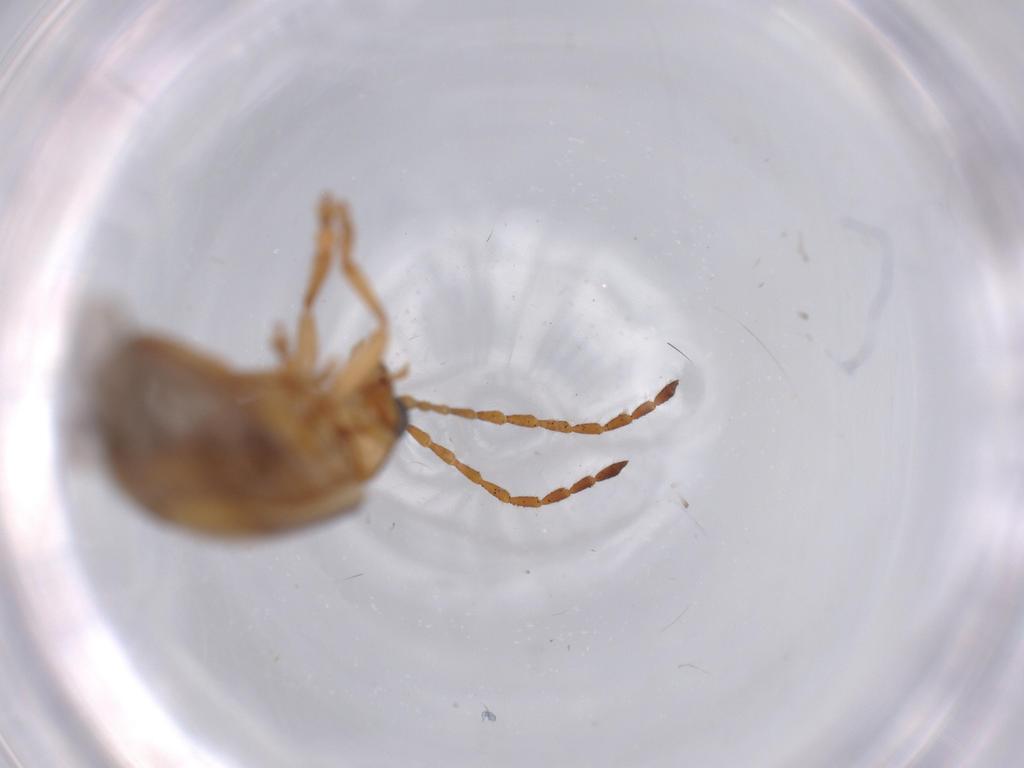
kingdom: Animalia
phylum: Arthropoda
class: Insecta
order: Coleoptera
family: Chrysomelidae
